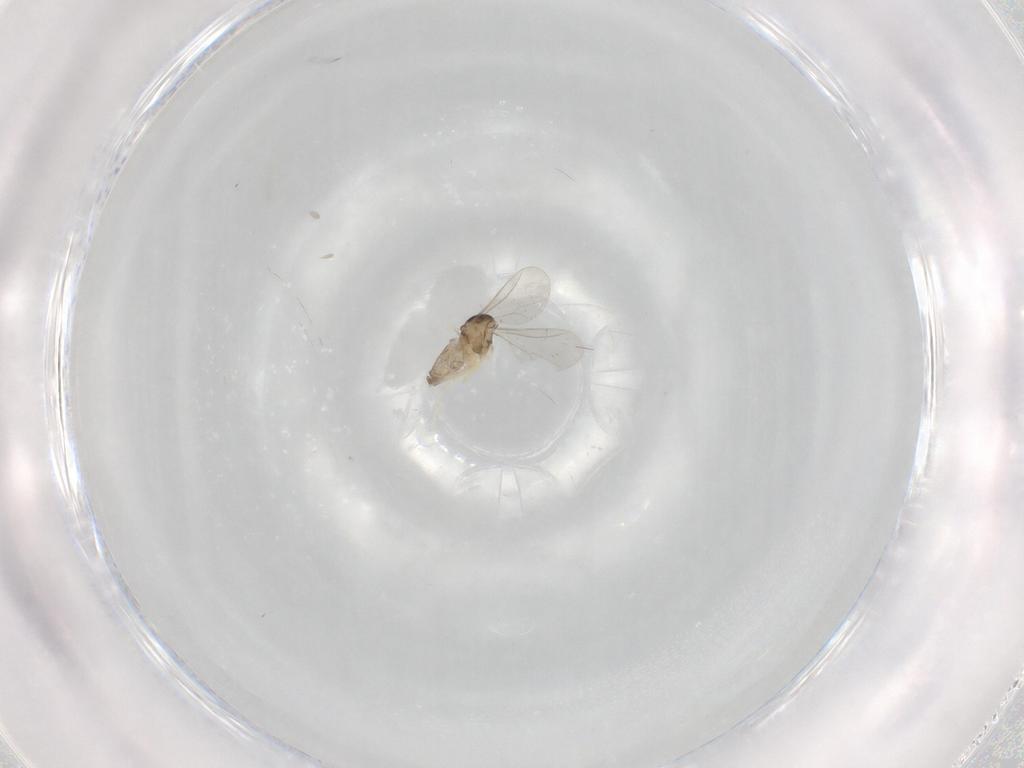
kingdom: Animalia
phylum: Arthropoda
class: Insecta
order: Diptera
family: Cecidomyiidae
